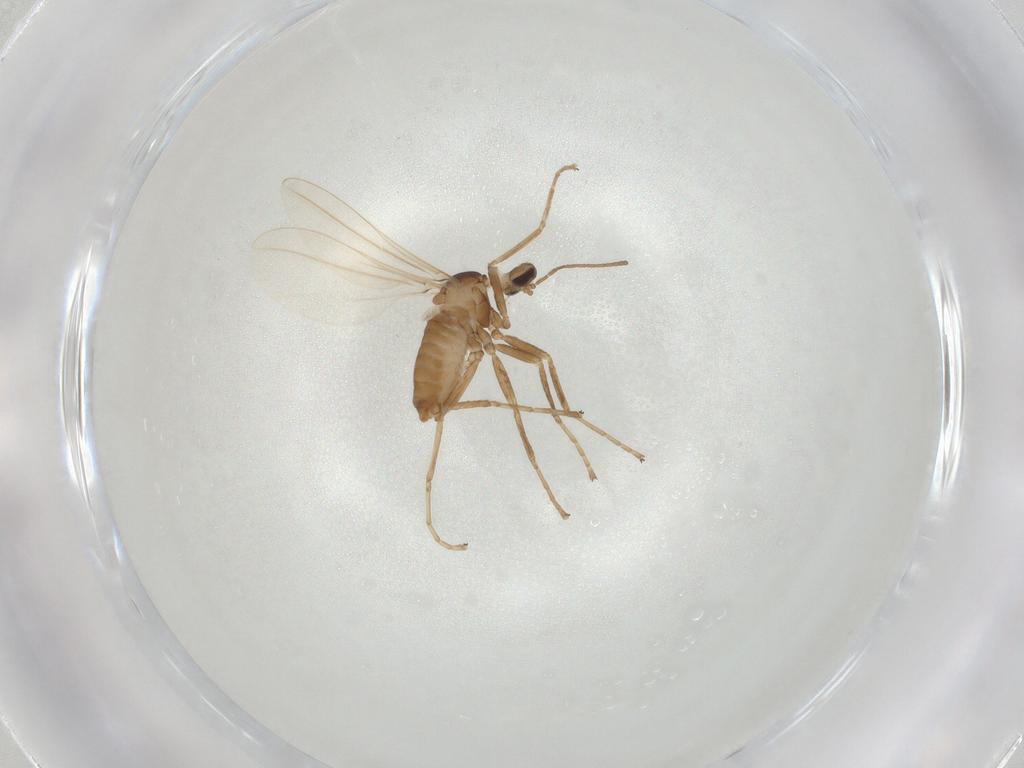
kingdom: Animalia
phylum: Arthropoda
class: Insecta
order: Diptera
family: Cecidomyiidae
